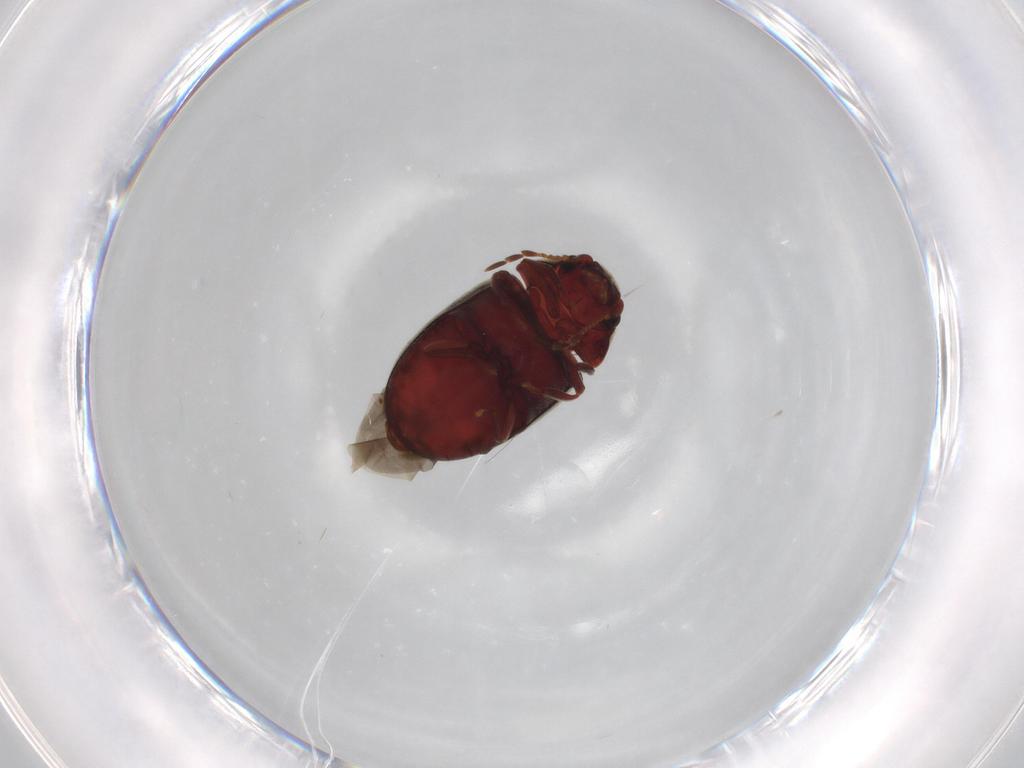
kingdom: Animalia
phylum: Arthropoda
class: Insecta
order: Coleoptera
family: Ptinidae
